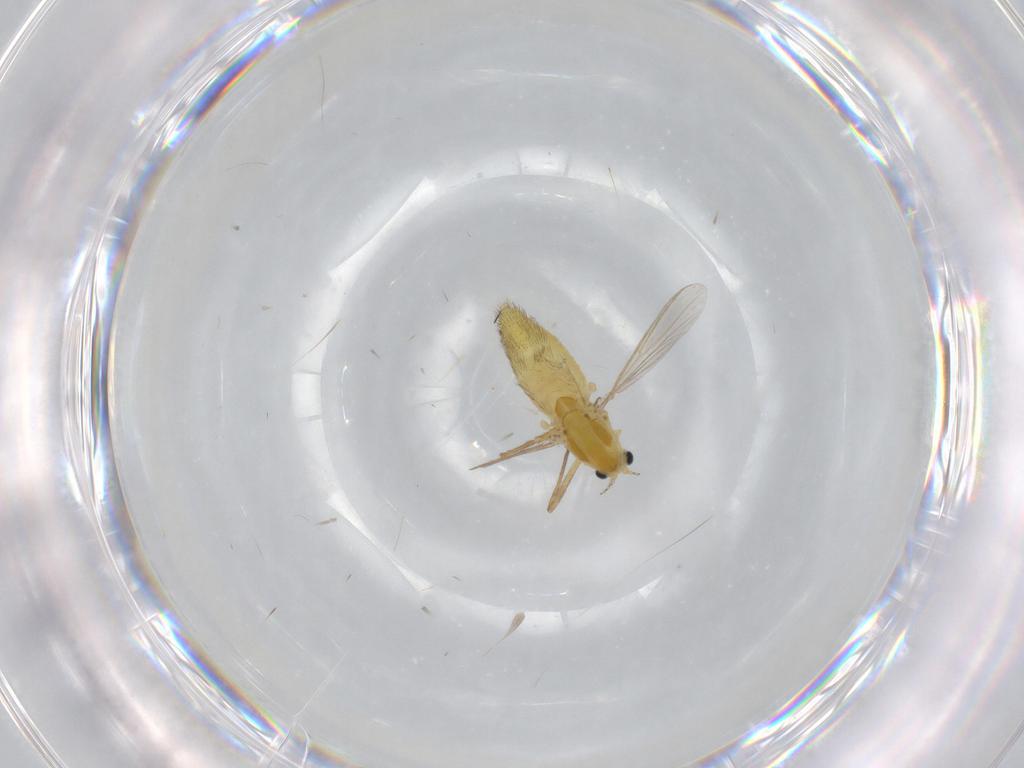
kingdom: Animalia
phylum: Arthropoda
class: Insecta
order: Diptera
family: Chironomidae
